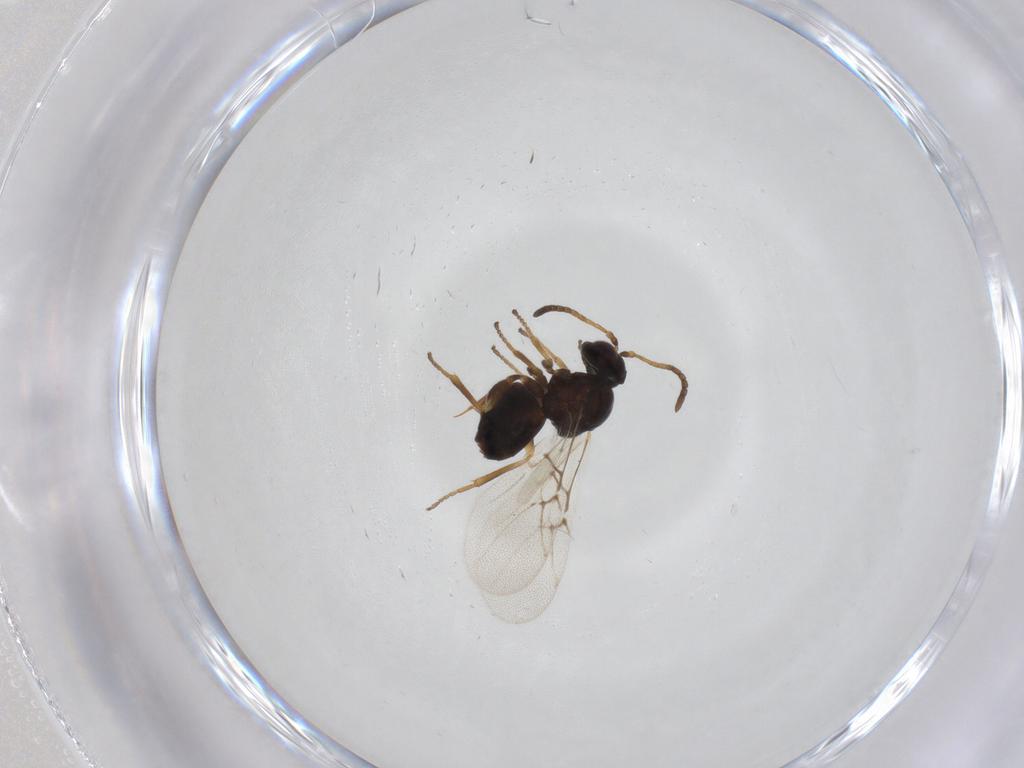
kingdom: Animalia
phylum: Arthropoda
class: Insecta
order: Hymenoptera
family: Cynipidae
